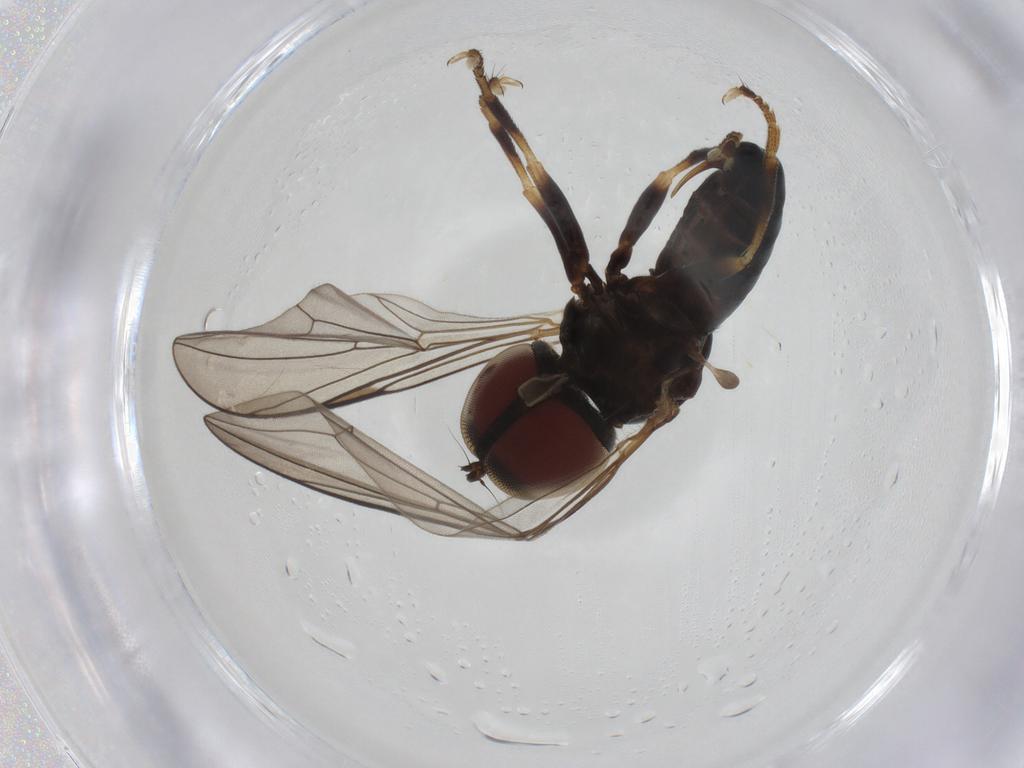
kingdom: Animalia
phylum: Arthropoda
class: Insecta
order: Diptera
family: Pipunculidae
